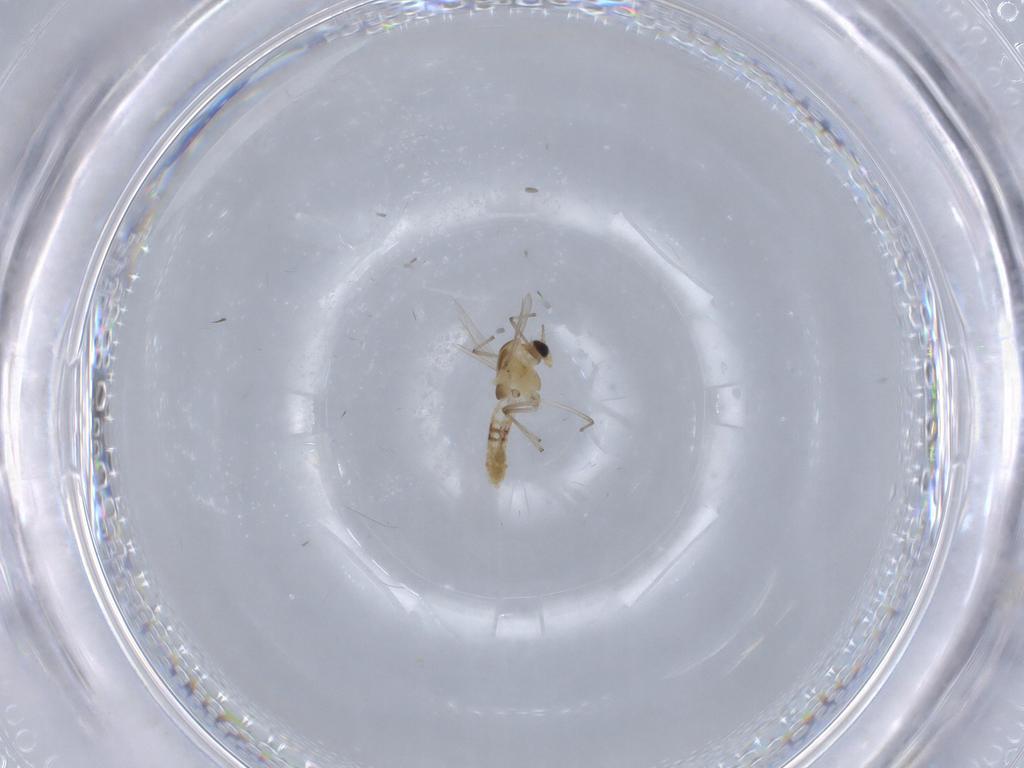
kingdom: Animalia
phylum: Arthropoda
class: Insecta
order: Diptera
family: Chironomidae
